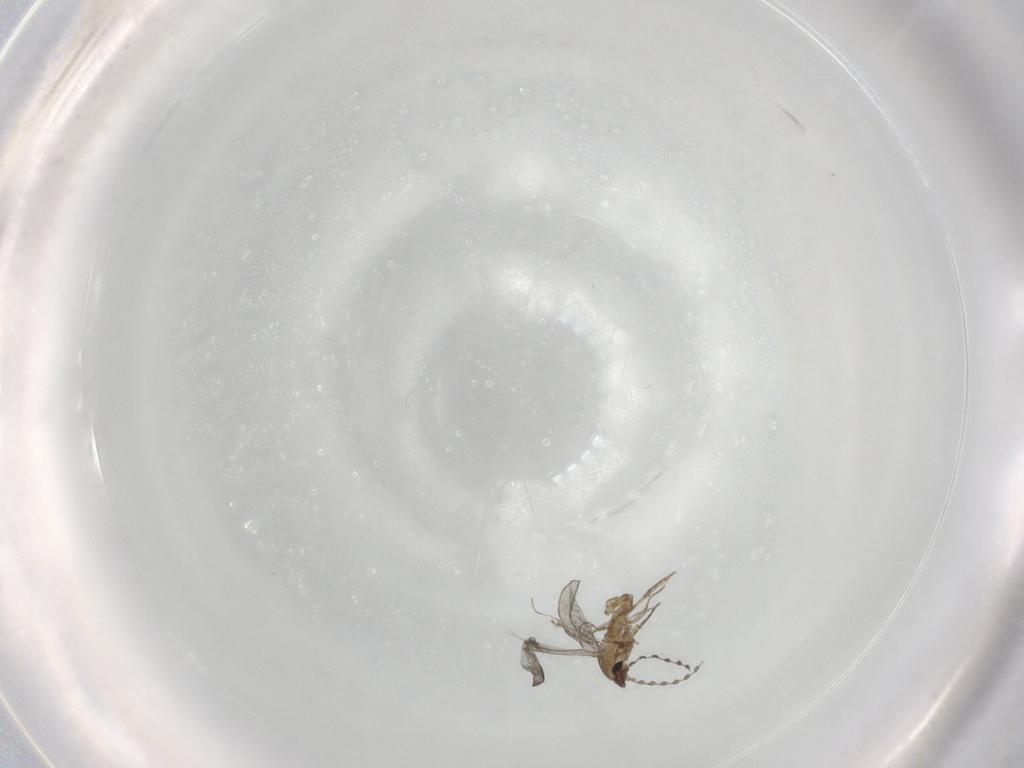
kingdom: Animalia
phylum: Arthropoda
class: Insecta
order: Diptera
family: Cecidomyiidae
